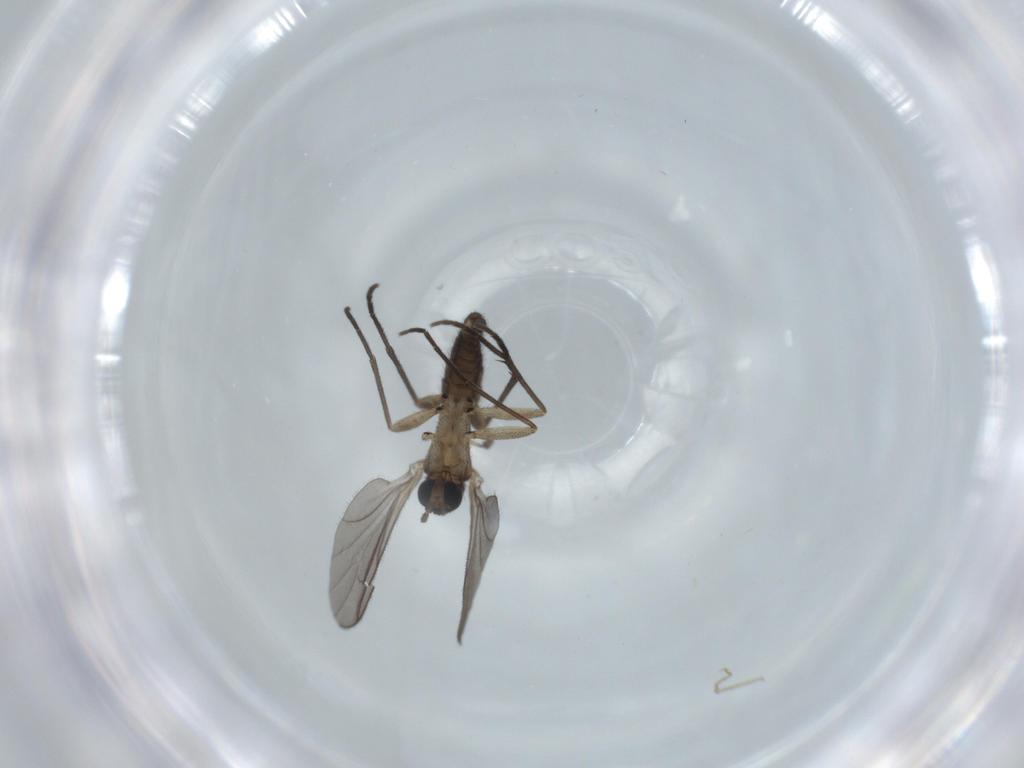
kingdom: Animalia
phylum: Arthropoda
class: Insecta
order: Diptera
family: Sciaridae
